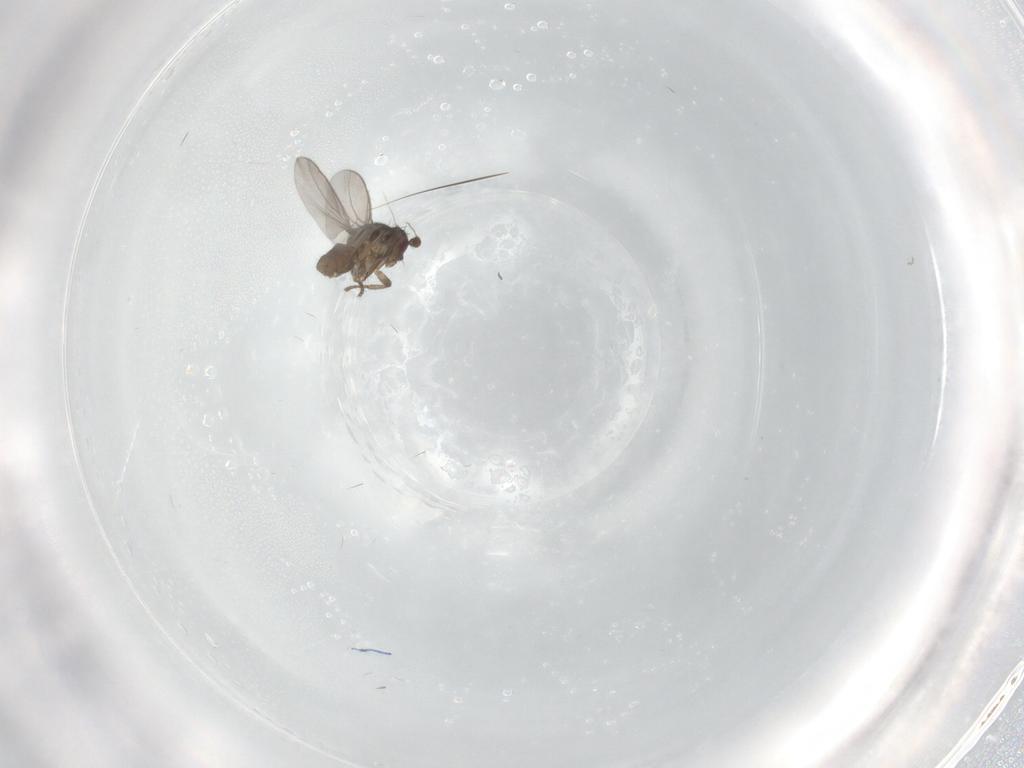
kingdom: Animalia
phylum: Arthropoda
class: Insecta
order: Diptera
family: Sphaeroceridae
